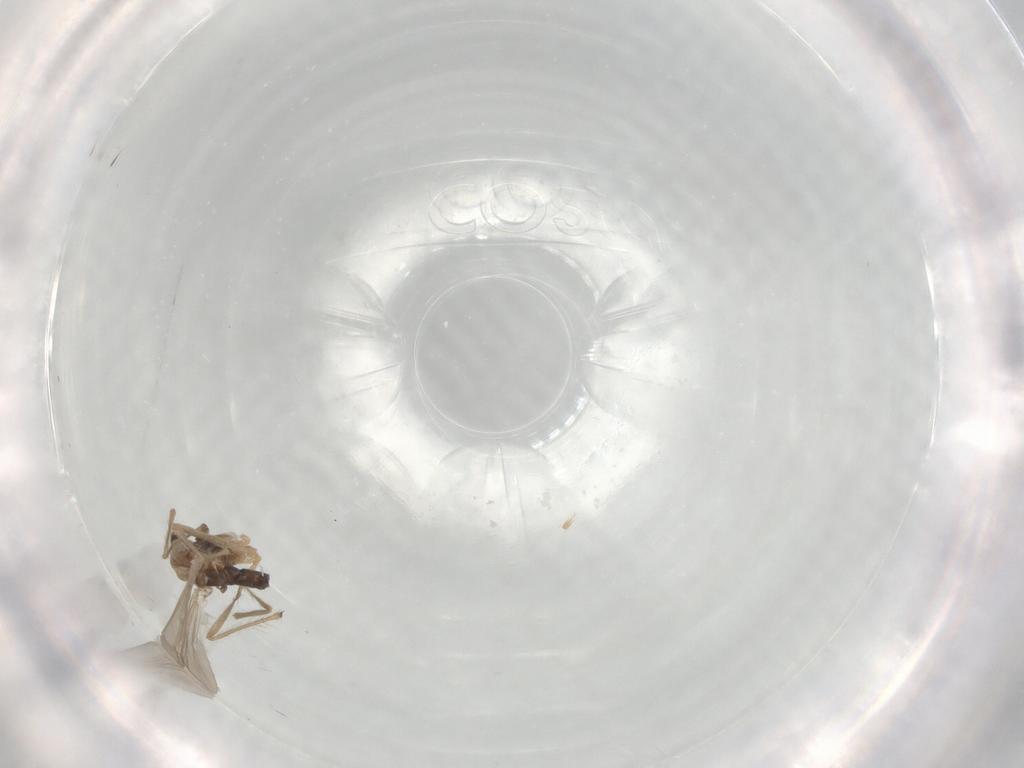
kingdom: Animalia
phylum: Arthropoda
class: Insecta
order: Diptera
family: Chironomidae
